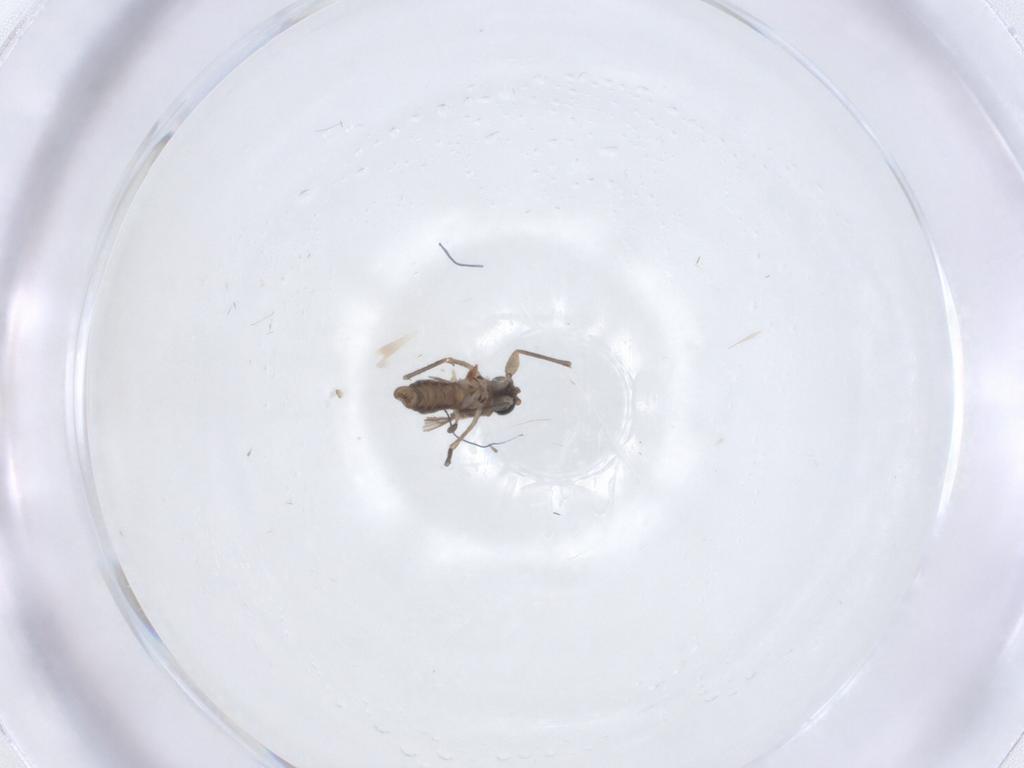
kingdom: Animalia
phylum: Arthropoda
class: Insecta
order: Diptera
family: Sciaridae
